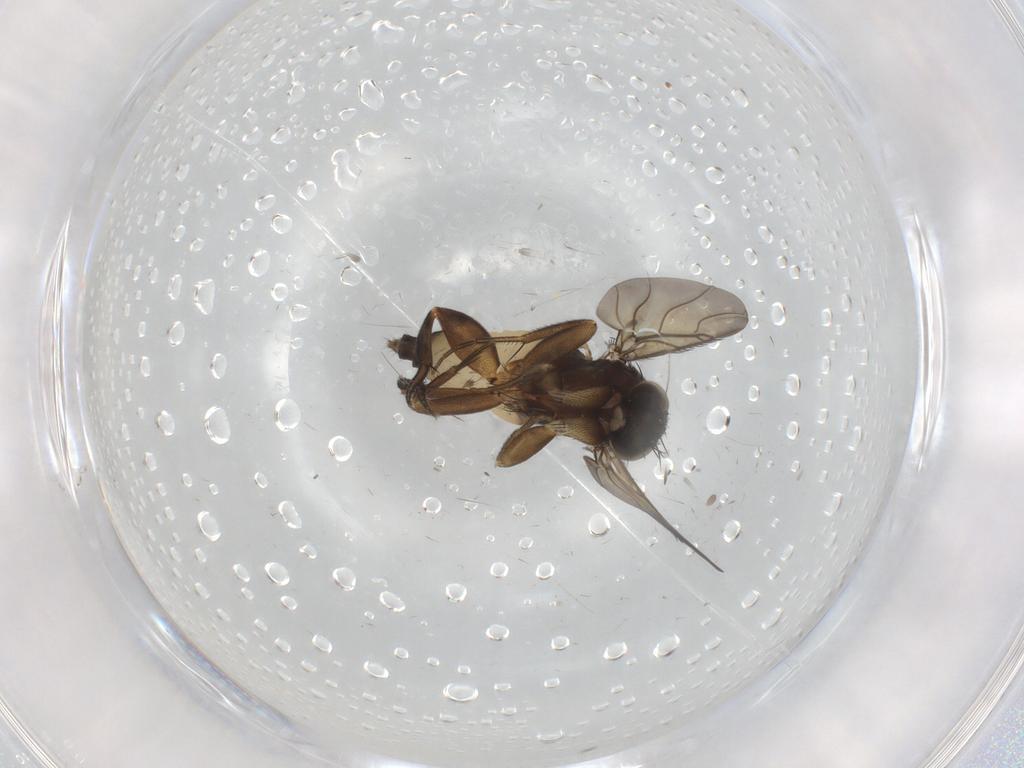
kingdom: Animalia
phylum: Arthropoda
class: Insecta
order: Diptera
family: Phoridae
